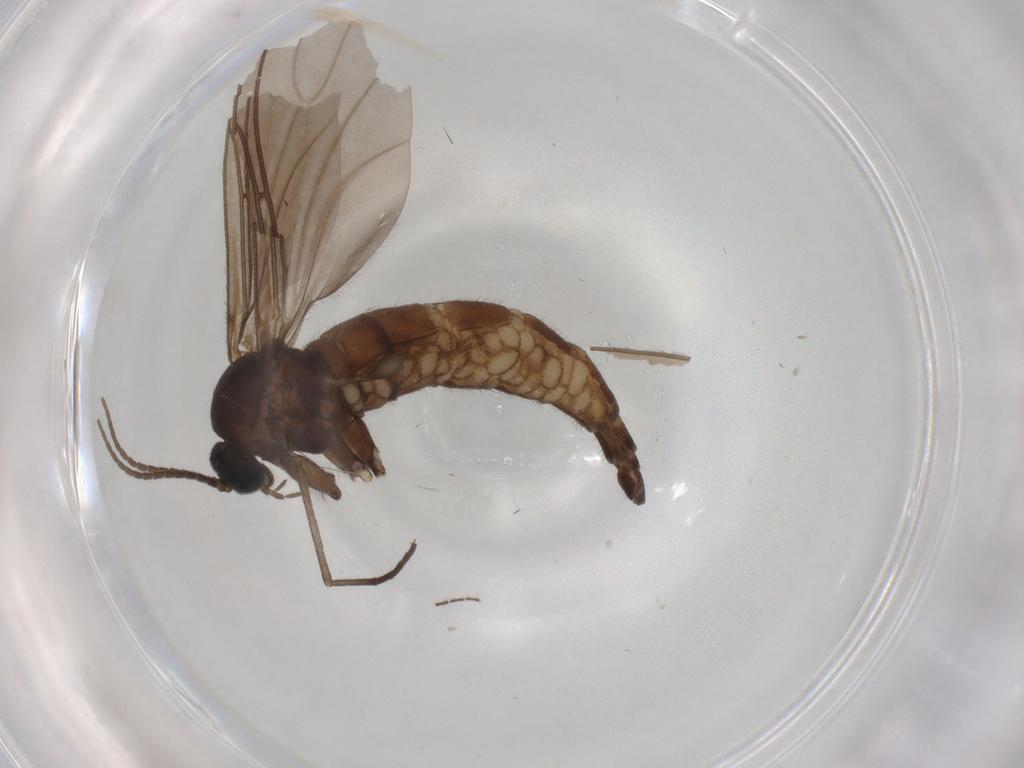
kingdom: Animalia
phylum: Arthropoda
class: Insecta
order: Diptera
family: Sciaridae
